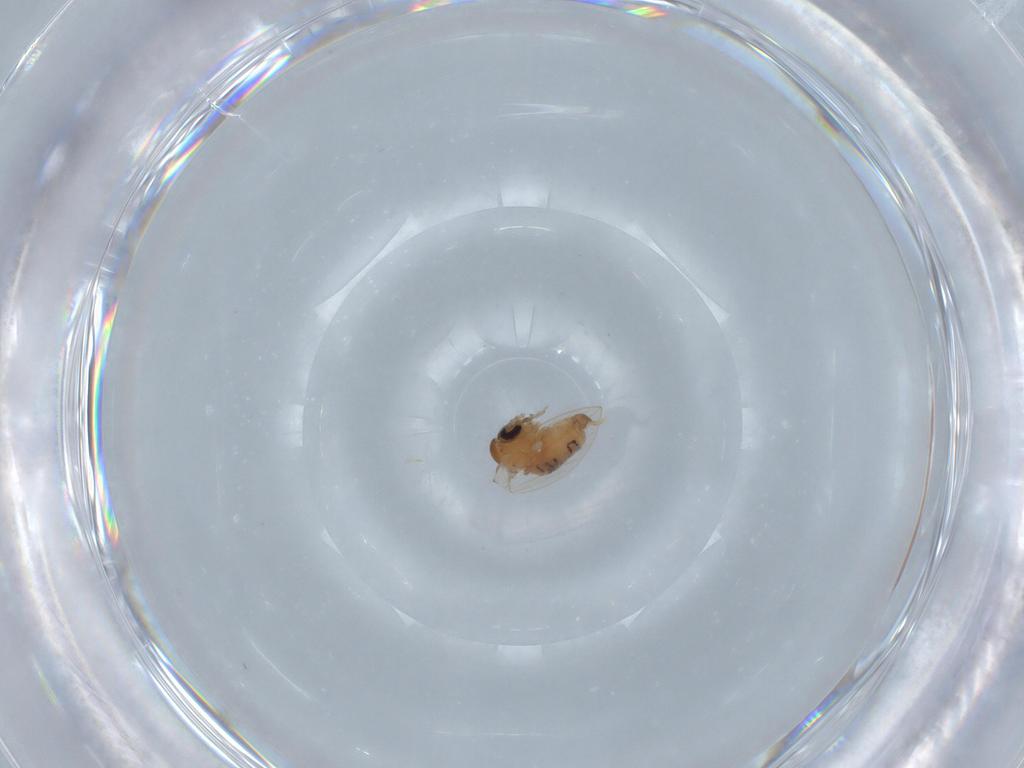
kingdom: Animalia
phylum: Arthropoda
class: Insecta
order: Diptera
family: Psychodidae
